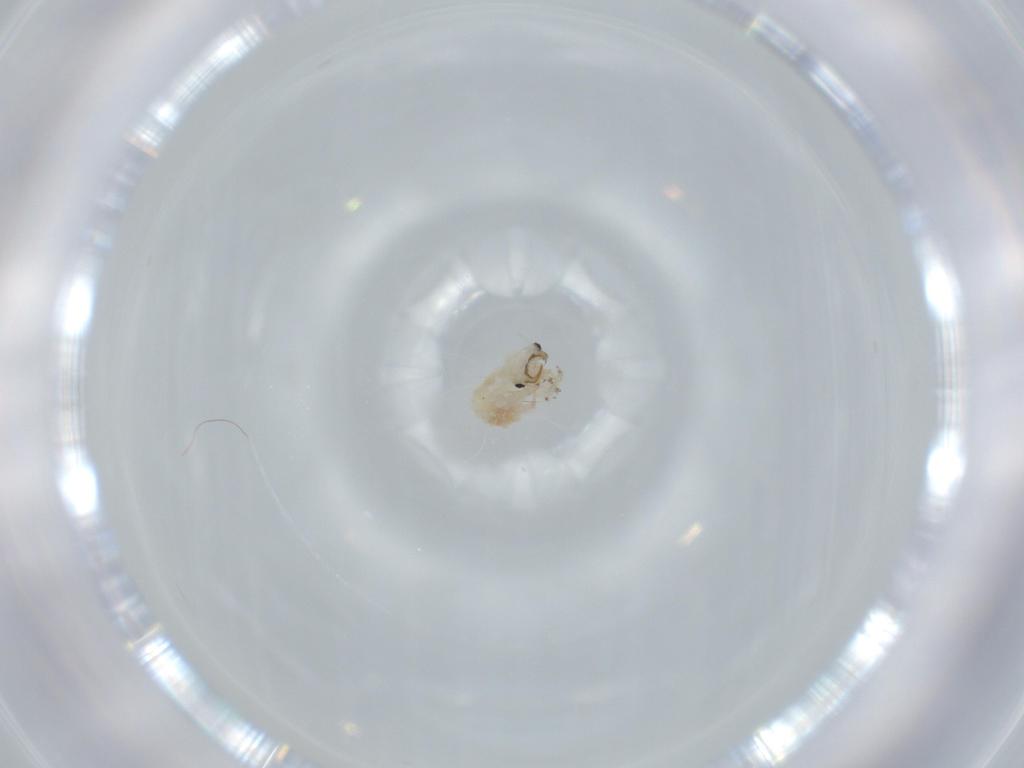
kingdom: Animalia
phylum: Arthropoda
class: Insecta
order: Neuroptera
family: Chrysopidae
